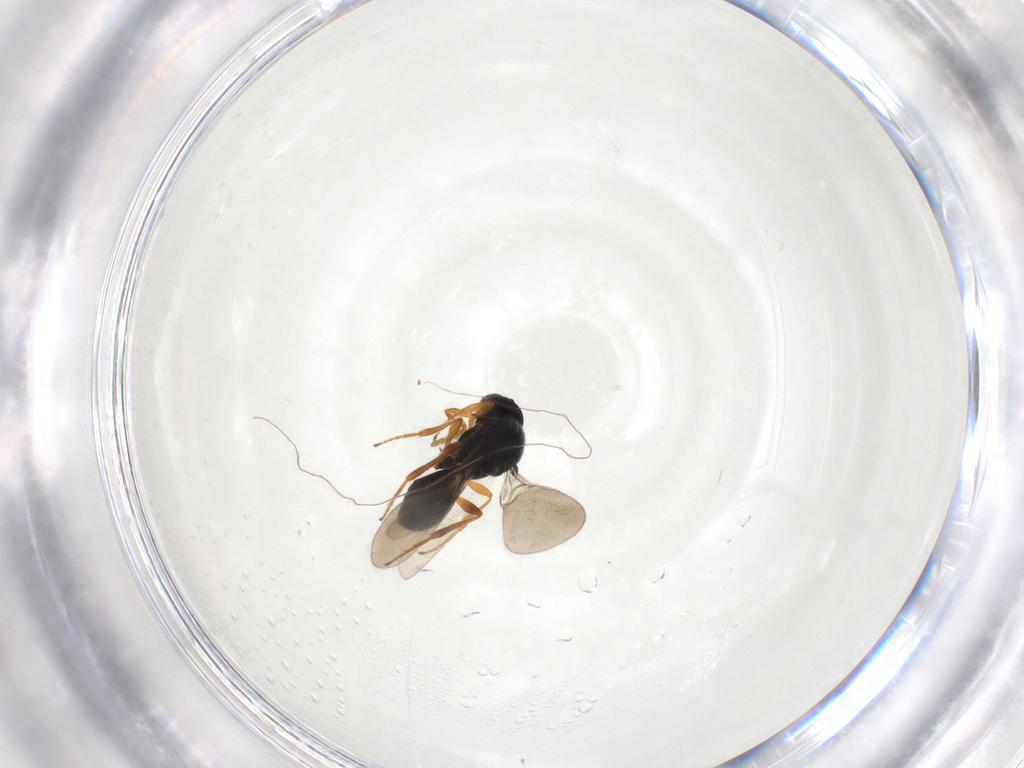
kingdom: Animalia
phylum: Arthropoda
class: Insecta
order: Hymenoptera
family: Platygastridae
